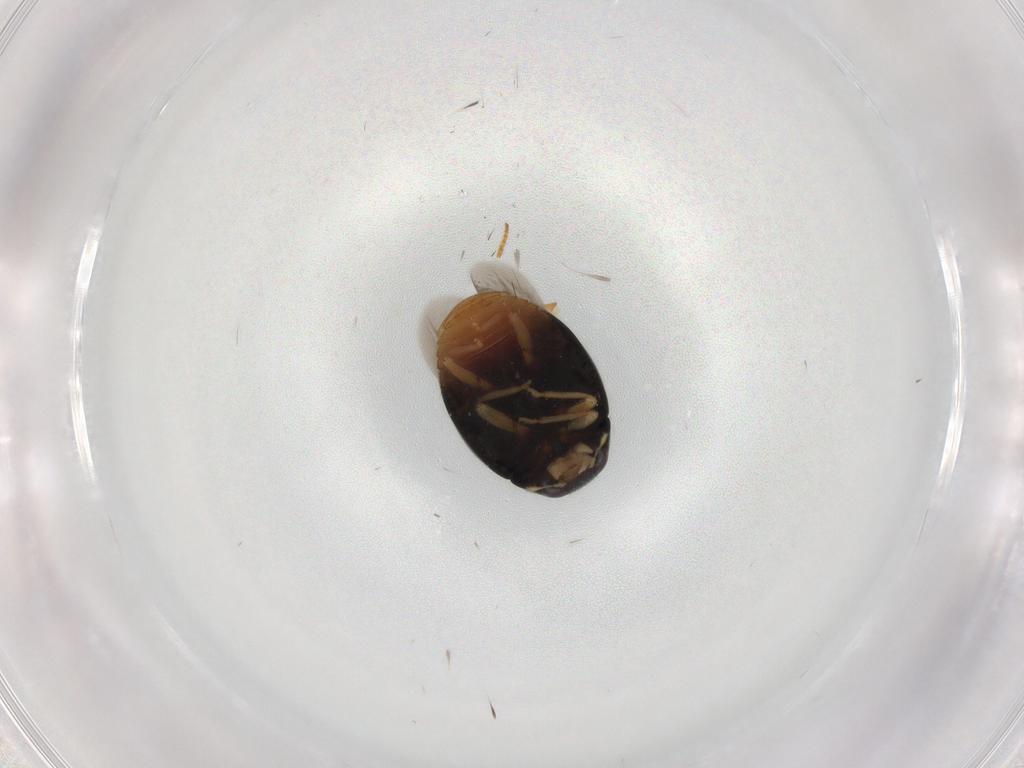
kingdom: Animalia
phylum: Arthropoda
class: Insecta
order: Coleoptera
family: Coccinellidae
